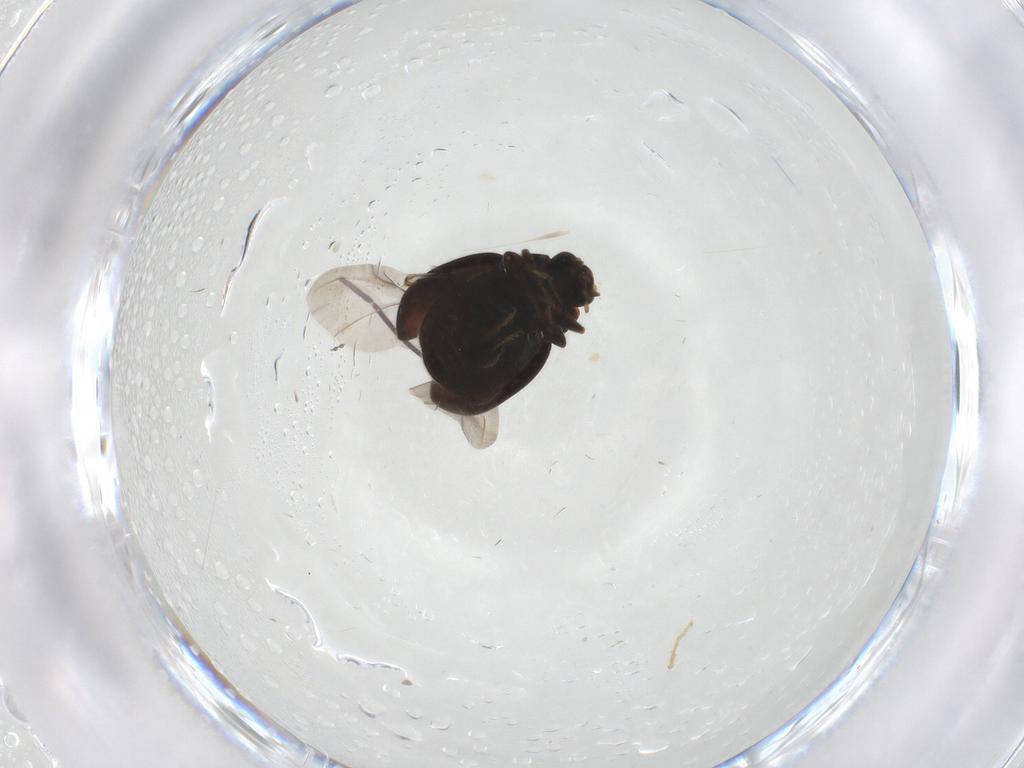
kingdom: Animalia
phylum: Arthropoda
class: Insecta
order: Coleoptera
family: Coccinellidae
